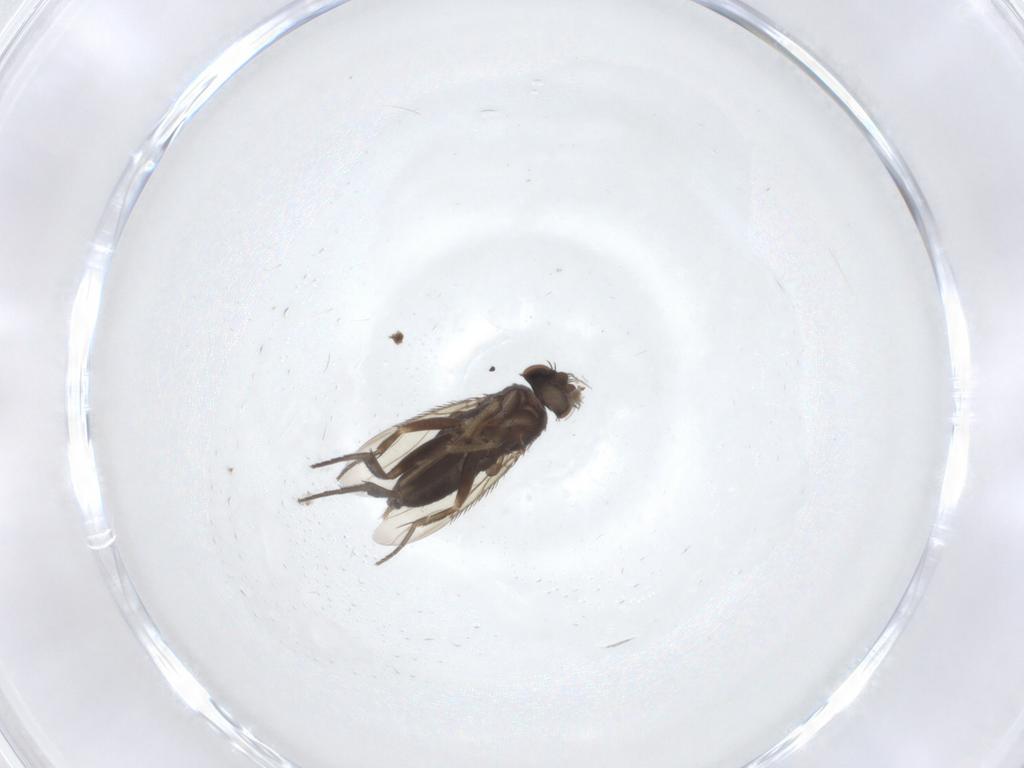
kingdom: Animalia
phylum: Arthropoda
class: Insecta
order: Diptera
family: Phoridae
